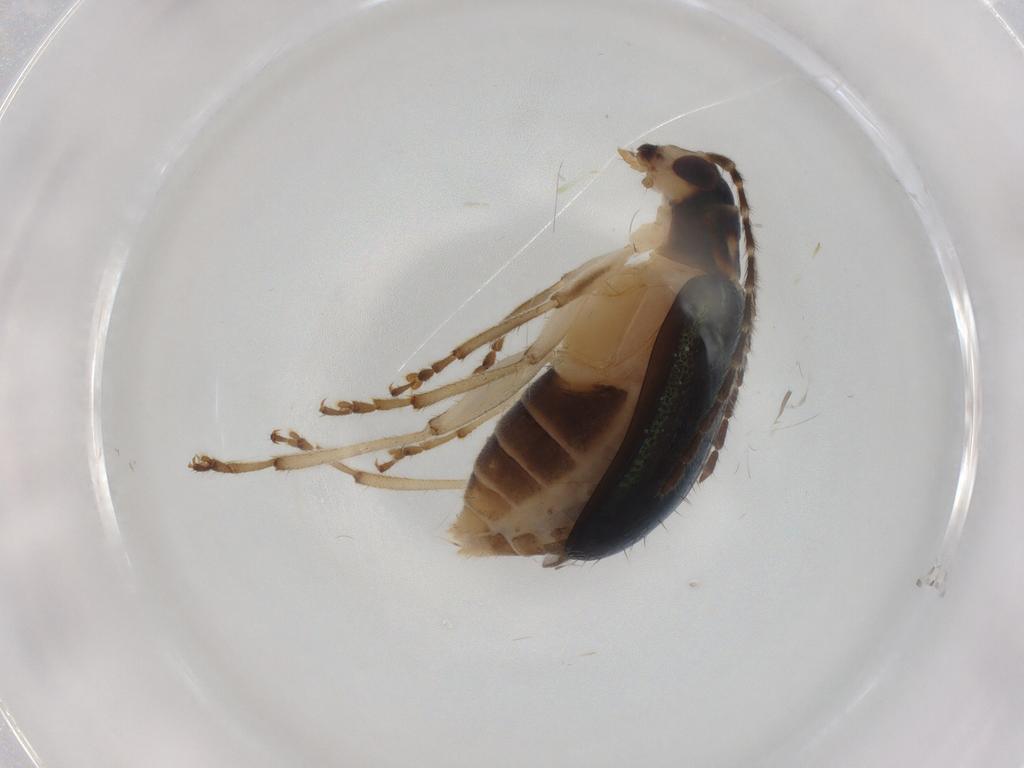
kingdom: Animalia
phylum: Arthropoda
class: Insecta
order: Coleoptera
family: Chrysomelidae
